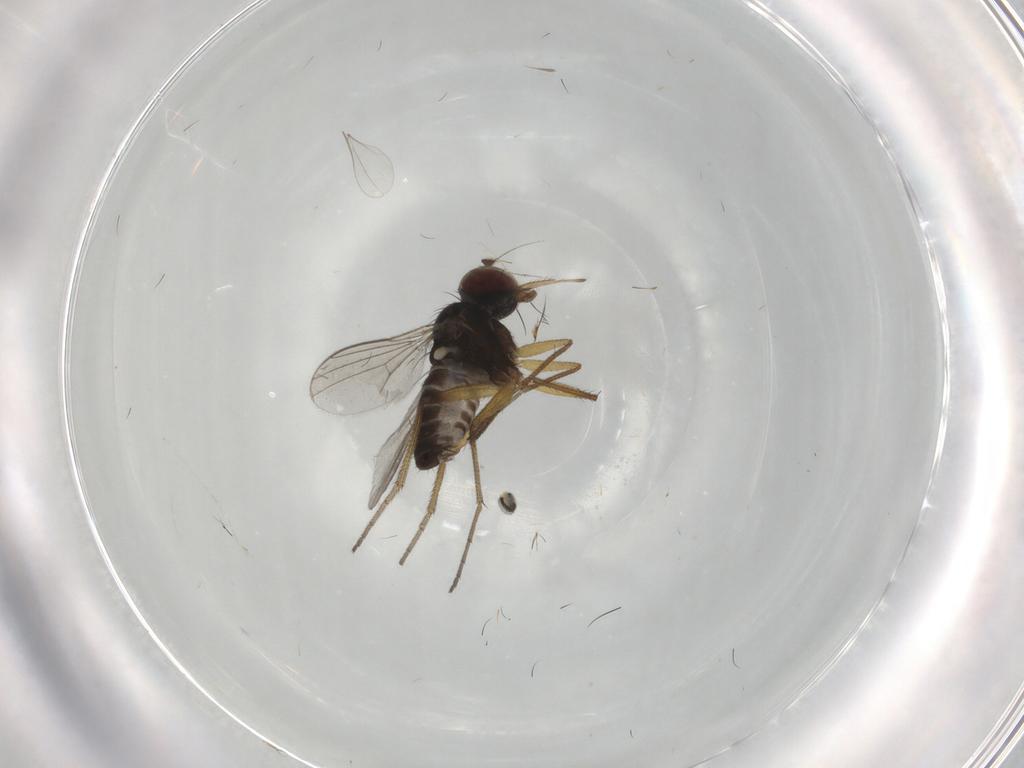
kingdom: Animalia
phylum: Arthropoda
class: Insecta
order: Diptera
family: Dolichopodidae
